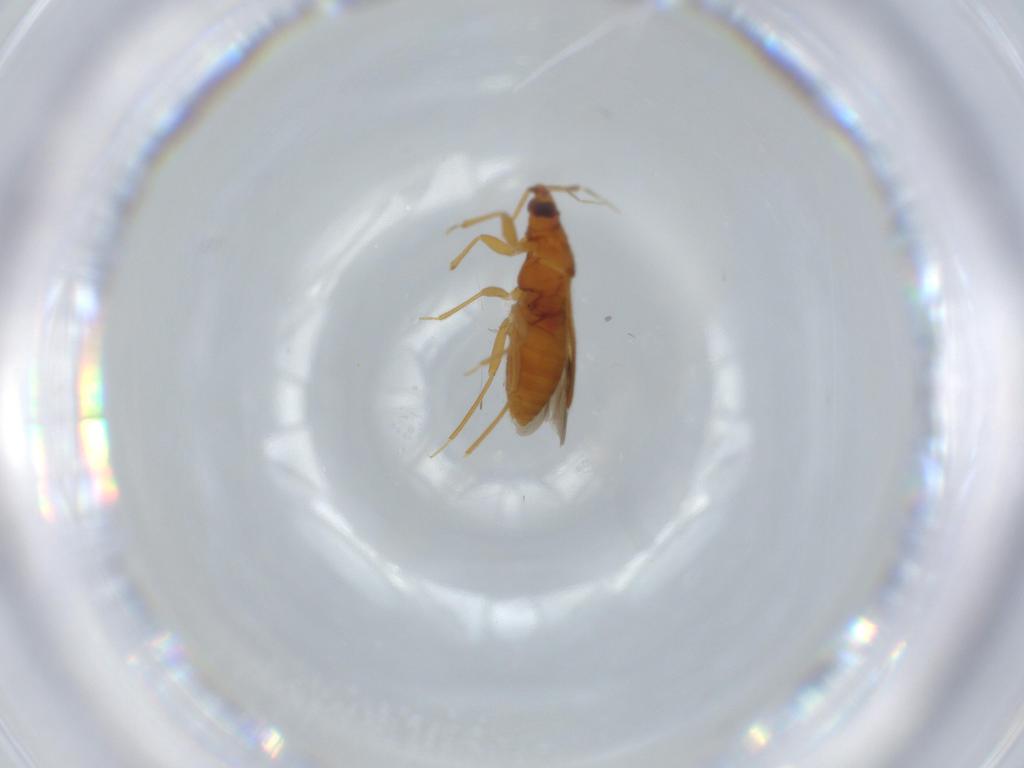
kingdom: Animalia
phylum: Arthropoda
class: Insecta
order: Hemiptera
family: Anthocoridae
